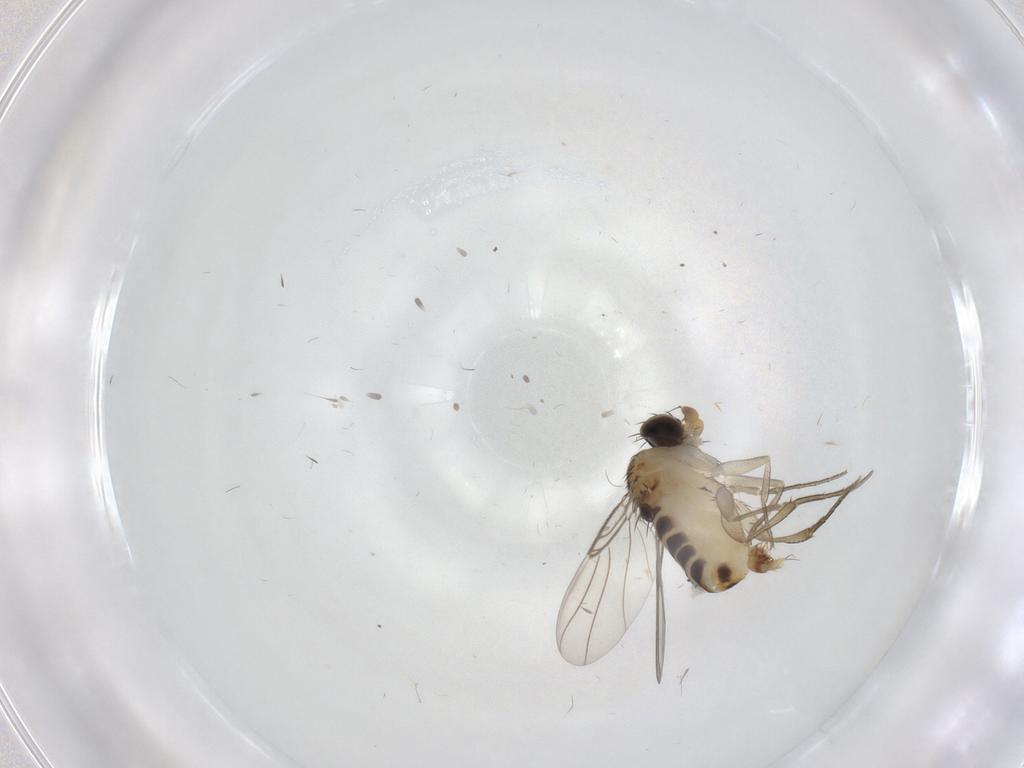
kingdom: Animalia
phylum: Arthropoda
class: Insecta
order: Diptera
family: Phoridae
